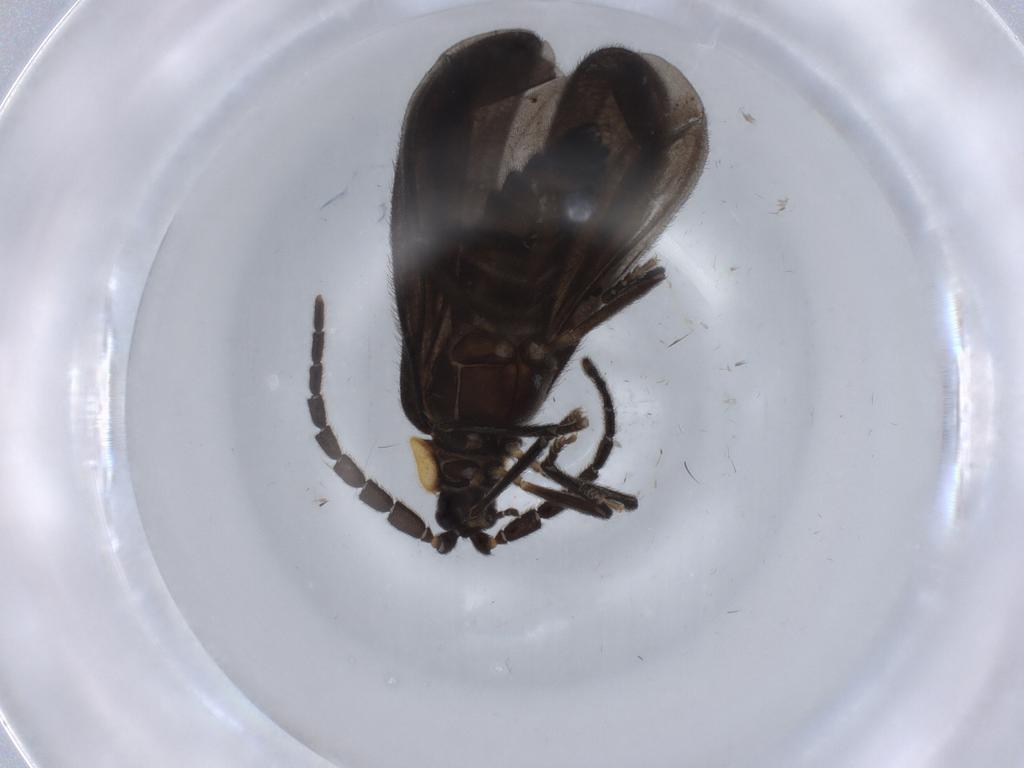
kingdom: Animalia
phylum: Arthropoda
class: Insecta
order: Coleoptera
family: Lycidae
